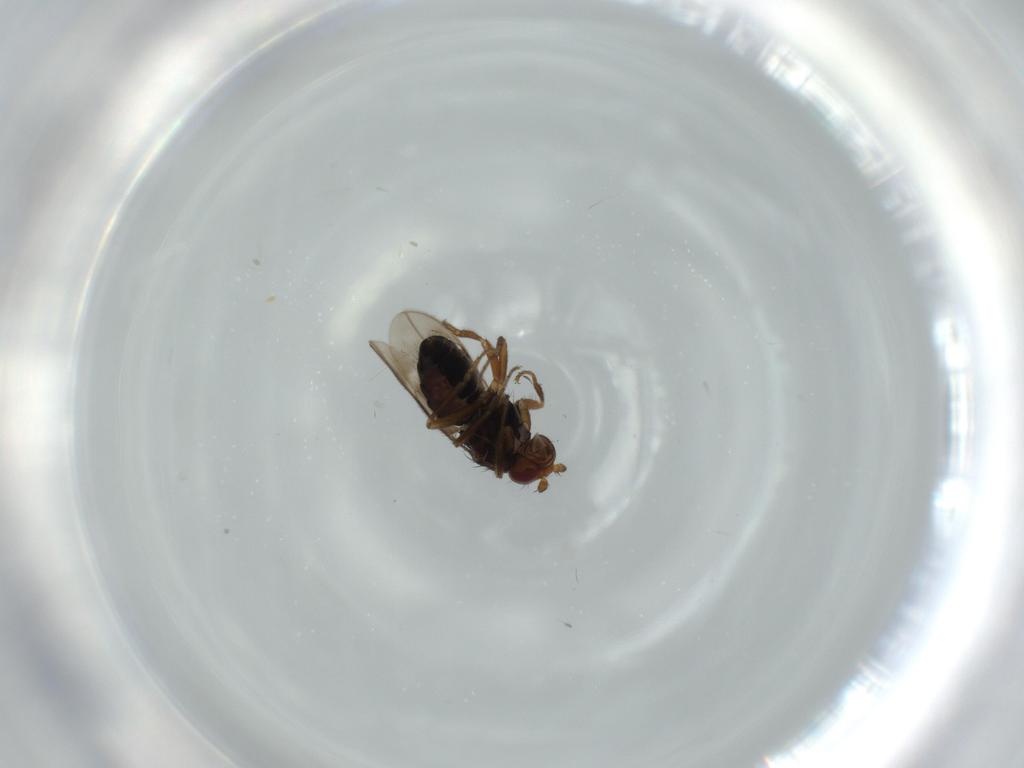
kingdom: Animalia
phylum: Arthropoda
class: Insecta
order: Diptera
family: Sphaeroceridae
